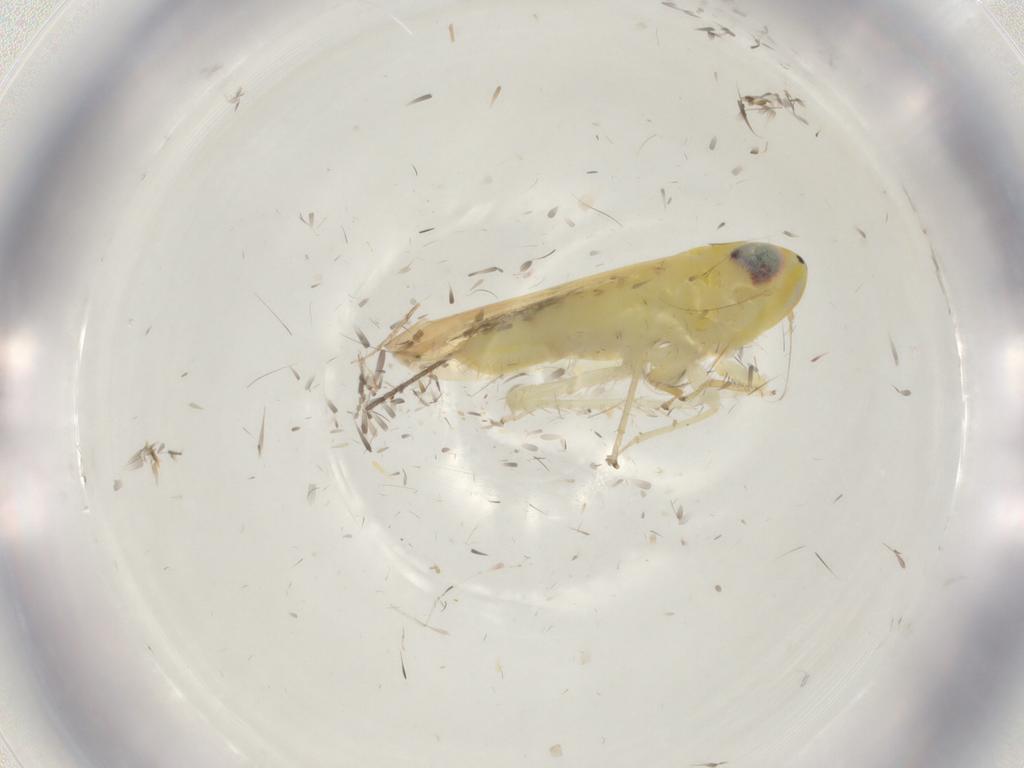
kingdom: Animalia
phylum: Arthropoda
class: Insecta
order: Hemiptera
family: Cicadellidae
